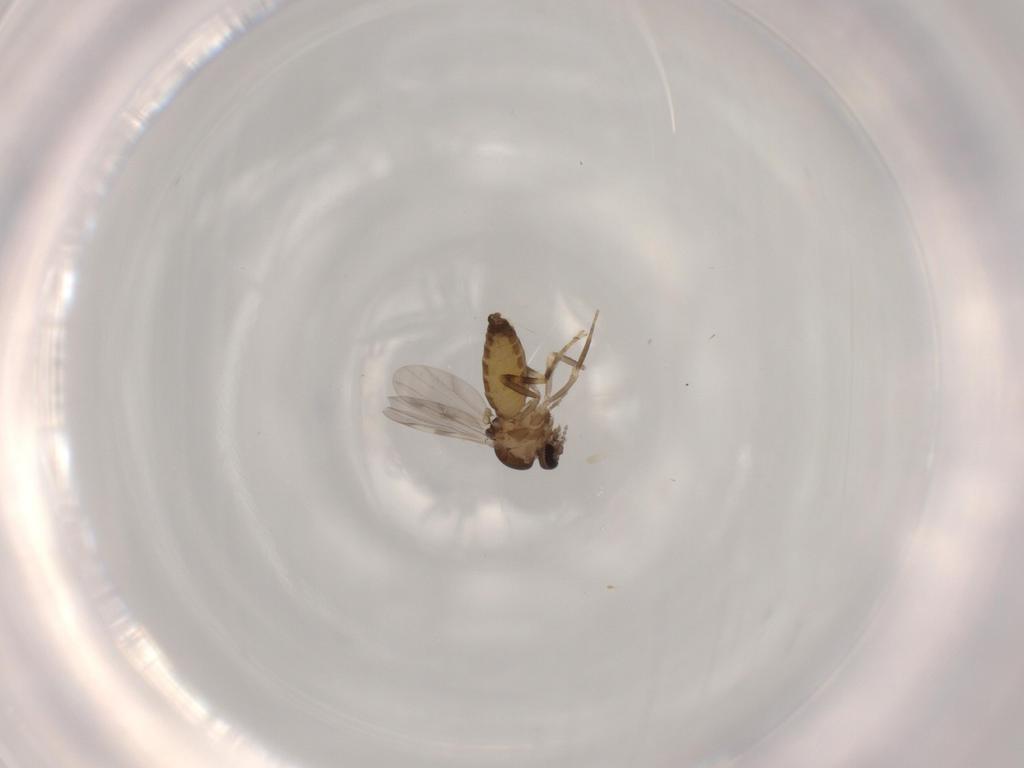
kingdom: Animalia
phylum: Arthropoda
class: Insecta
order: Diptera
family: Ceratopogonidae
